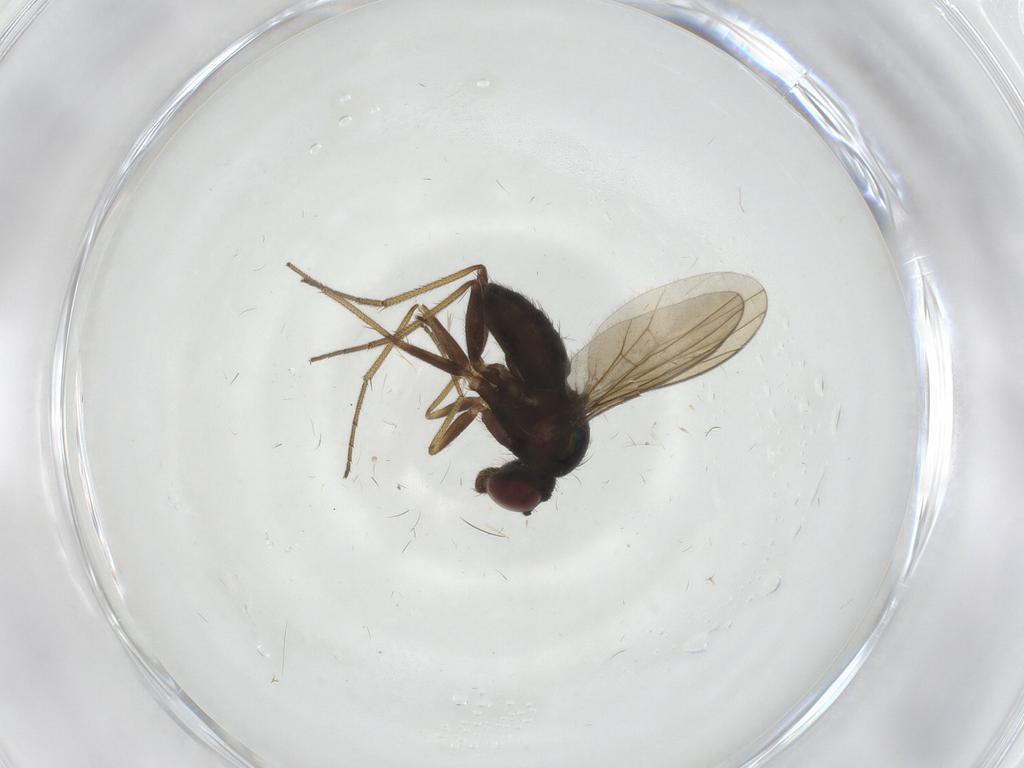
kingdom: Animalia
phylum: Arthropoda
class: Insecta
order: Diptera
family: Dolichopodidae
